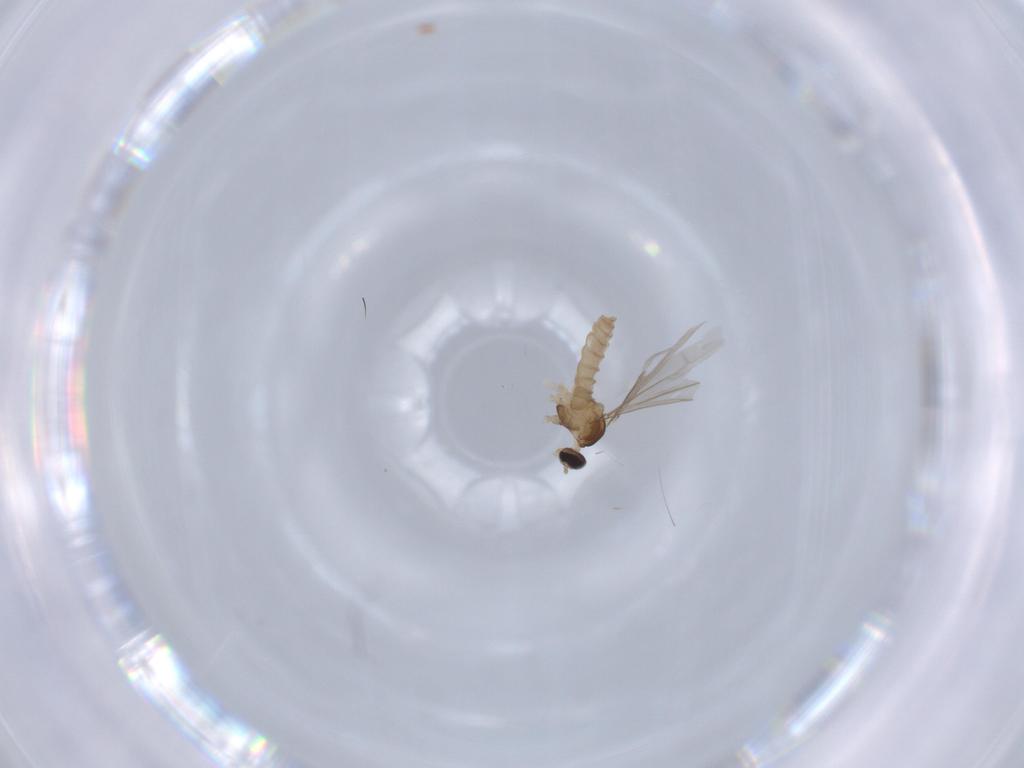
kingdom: Animalia
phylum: Arthropoda
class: Insecta
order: Diptera
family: Cecidomyiidae
